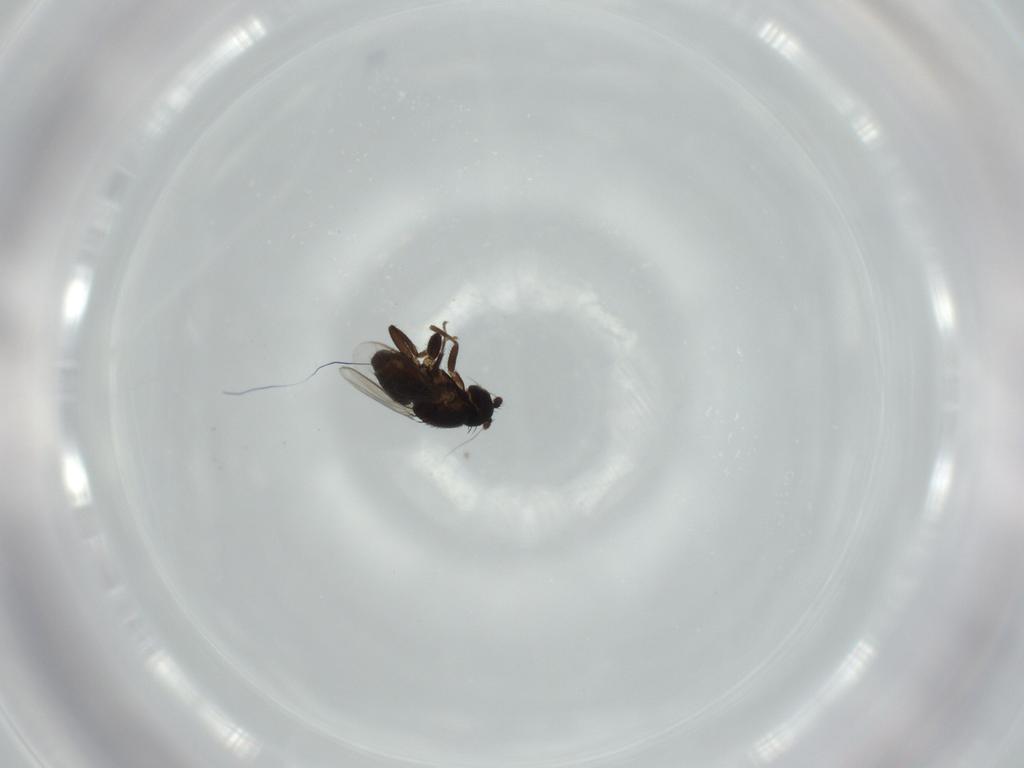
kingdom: Animalia
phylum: Arthropoda
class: Insecta
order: Diptera
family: Sphaeroceridae
